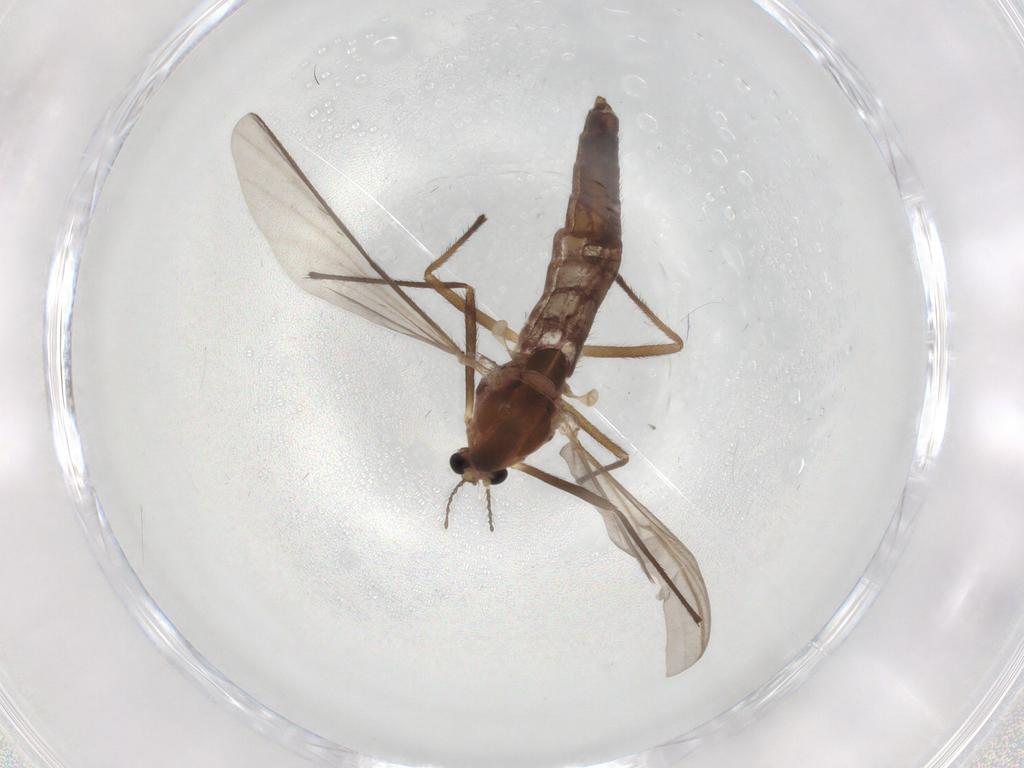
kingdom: Animalia
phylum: Arthropoda
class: Insecta
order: Diptera
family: Chironomidae
